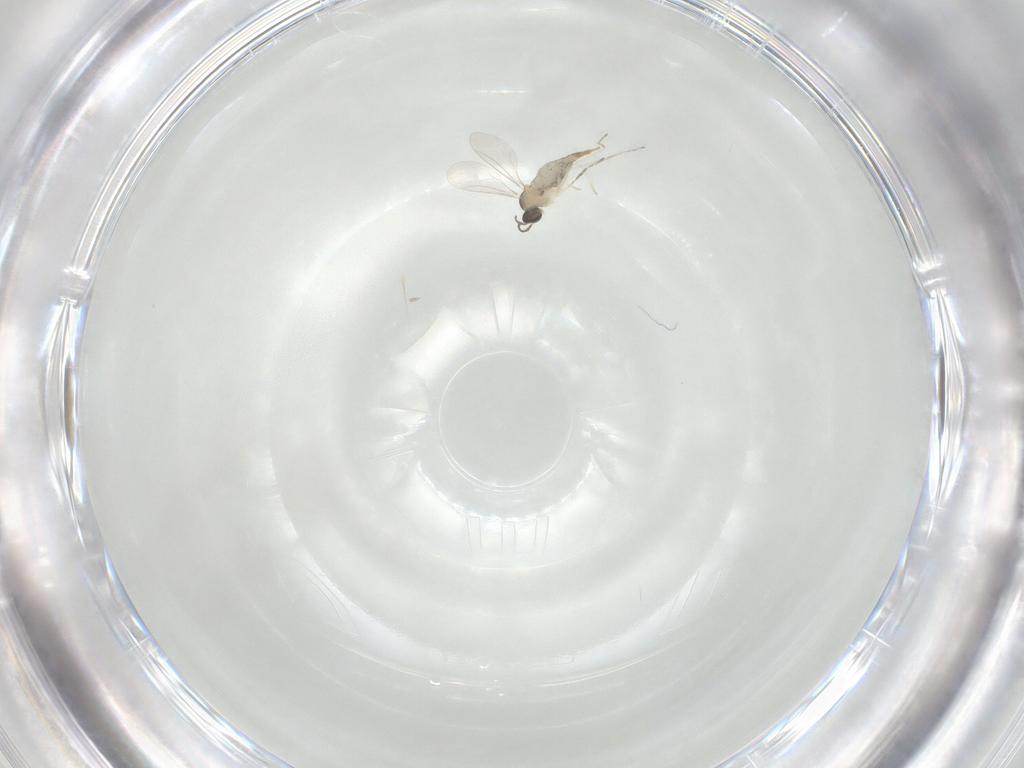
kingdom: Animalia
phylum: Arthropoda
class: Insecta
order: Diptera
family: Cecidomyiidae
